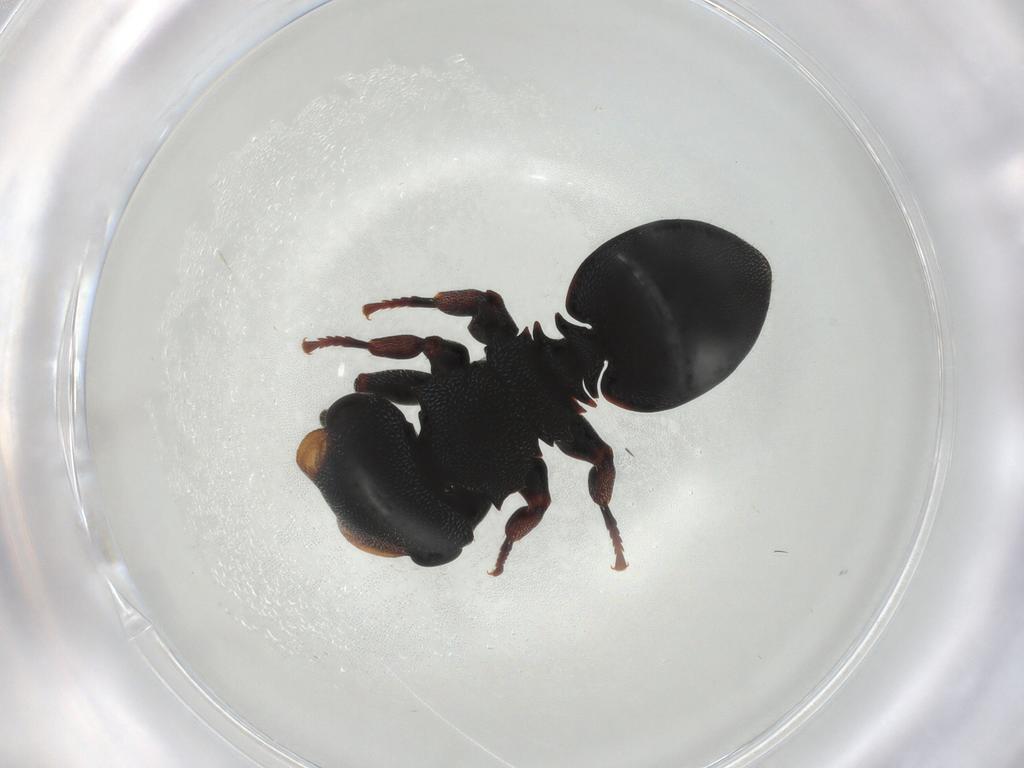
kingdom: Animalia
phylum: Arthropoda
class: Insecta
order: Hymenoptera
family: Formicidae
